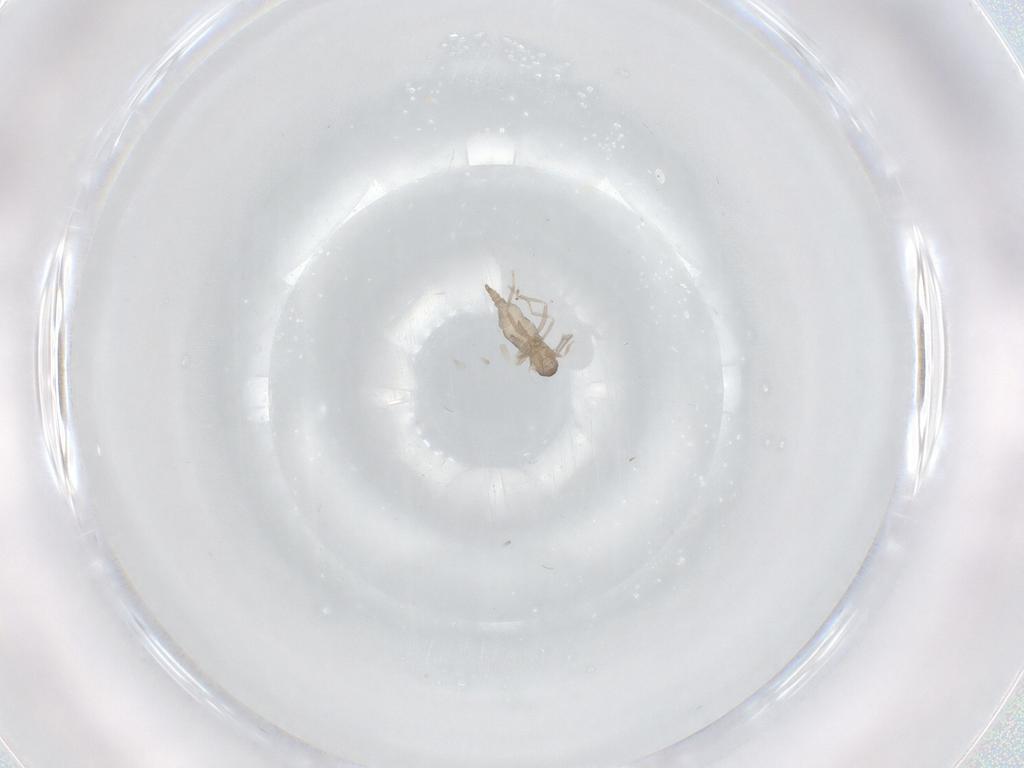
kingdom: Animalia
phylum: Arthropoda
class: Insecta
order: Diptera
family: Cecidomyiidae
